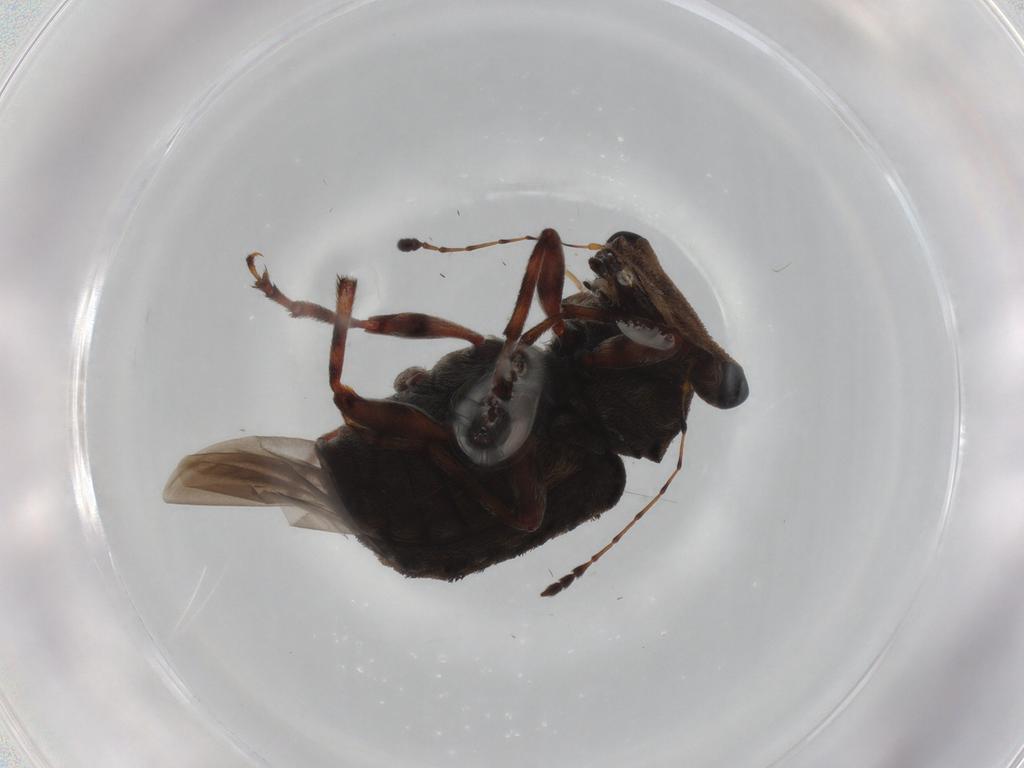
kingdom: Animalia
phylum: Arthropoda
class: Insecta
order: Coleoptera
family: Anthribidae
